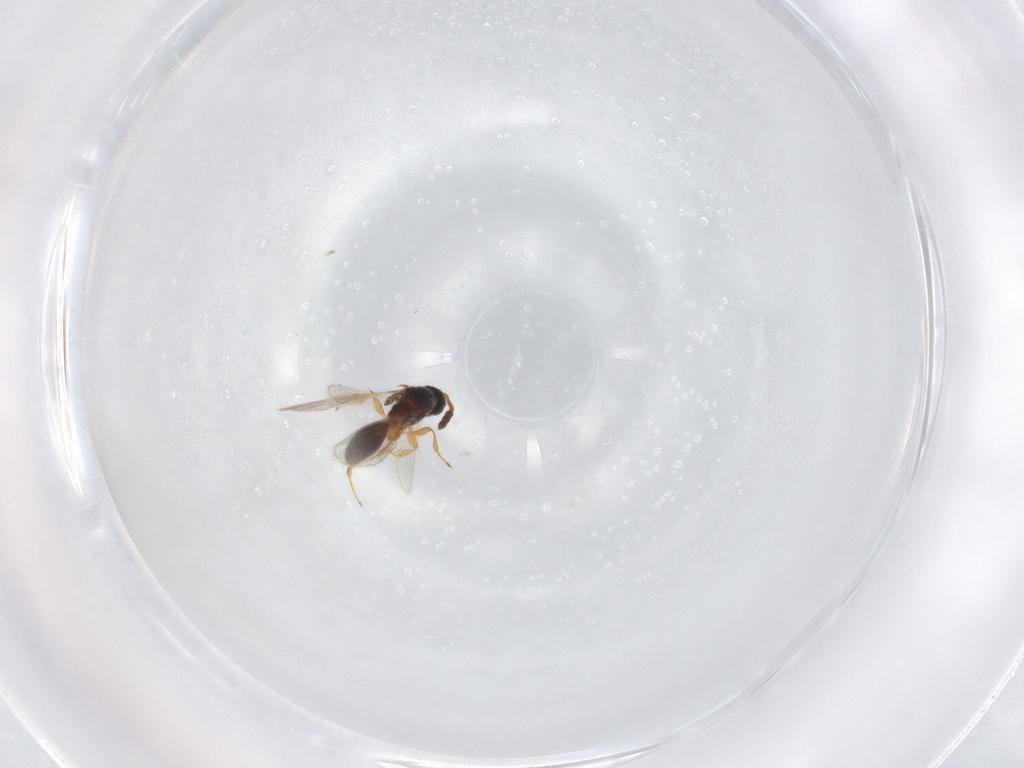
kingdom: Animalia
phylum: Arthropoda
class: Insecta
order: Hymenoptera
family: Diapriidae
